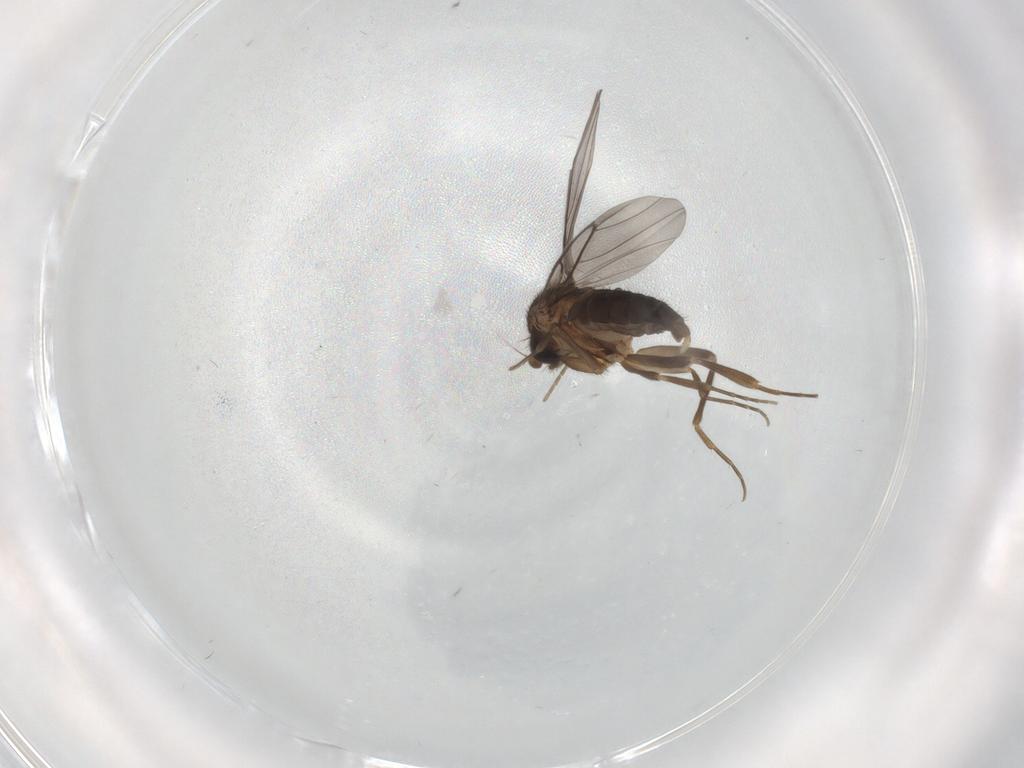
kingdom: Animalia
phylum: Arthropoda
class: Insecta
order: Diptera
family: Phoridae
